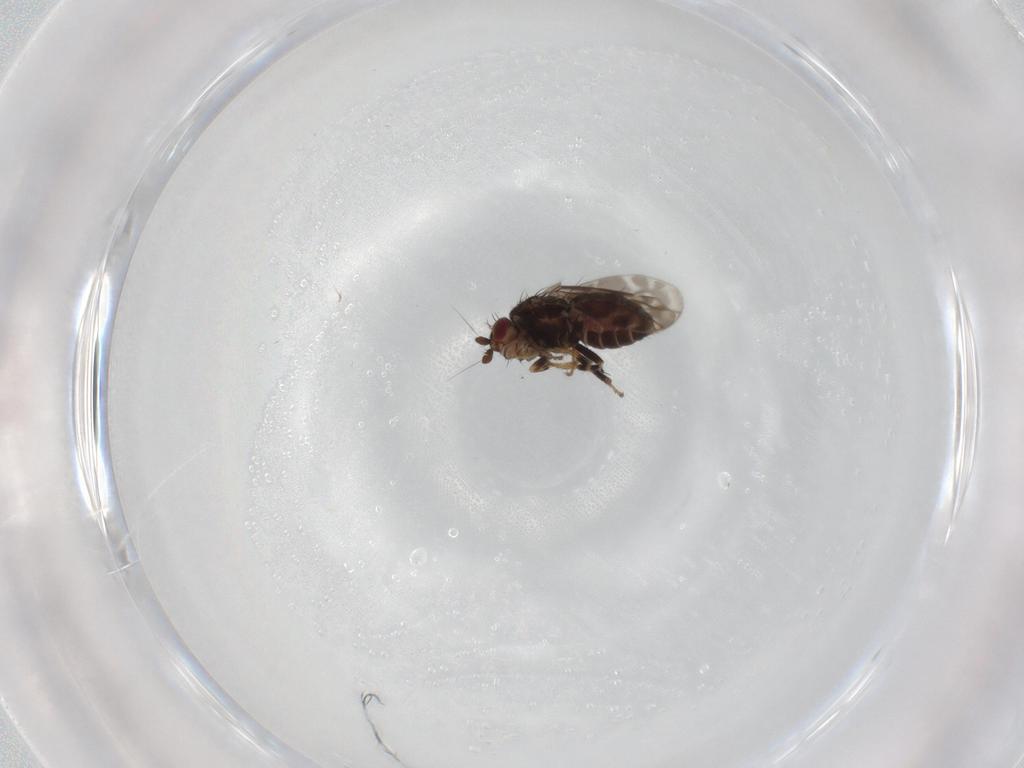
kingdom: Animalia
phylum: Arthropoda
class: Insecta
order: Diptera
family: Sphaeroceridae
